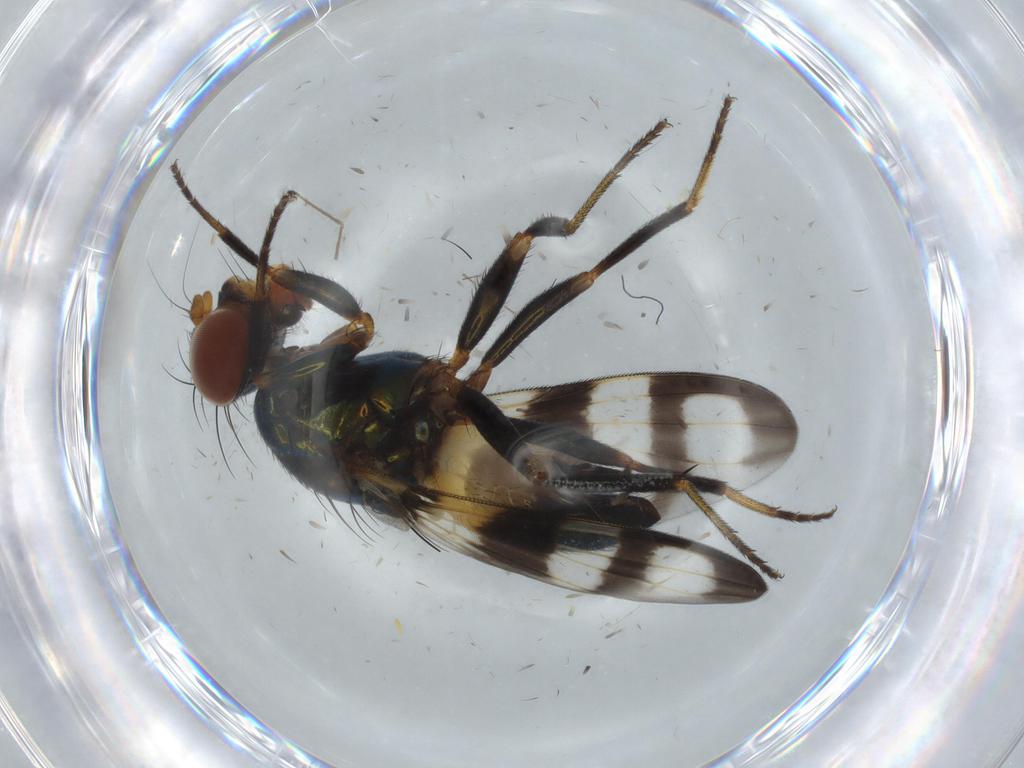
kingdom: Animalia
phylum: Arthropoda
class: Insecta
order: Diptera
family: Sciaridae
